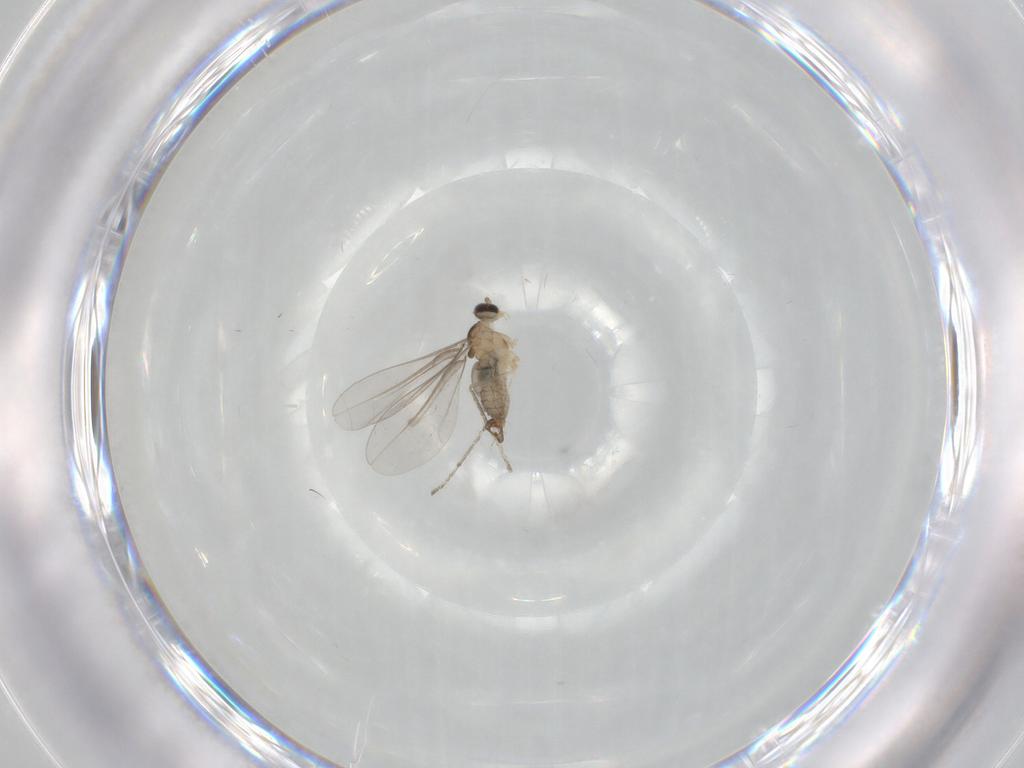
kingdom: Animalia
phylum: Arthropoda
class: Insecta
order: Diptera
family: Cecidomyiidae
